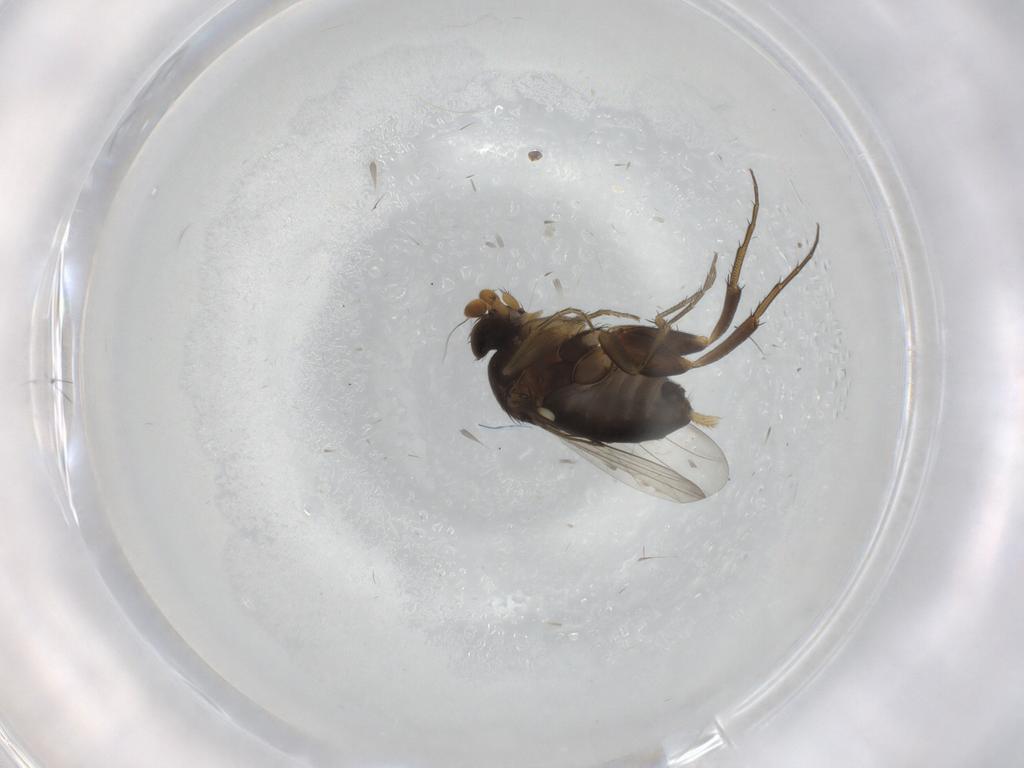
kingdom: Animalia
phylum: Arthropoda
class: Insecta
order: Diptera
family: Phoridae
